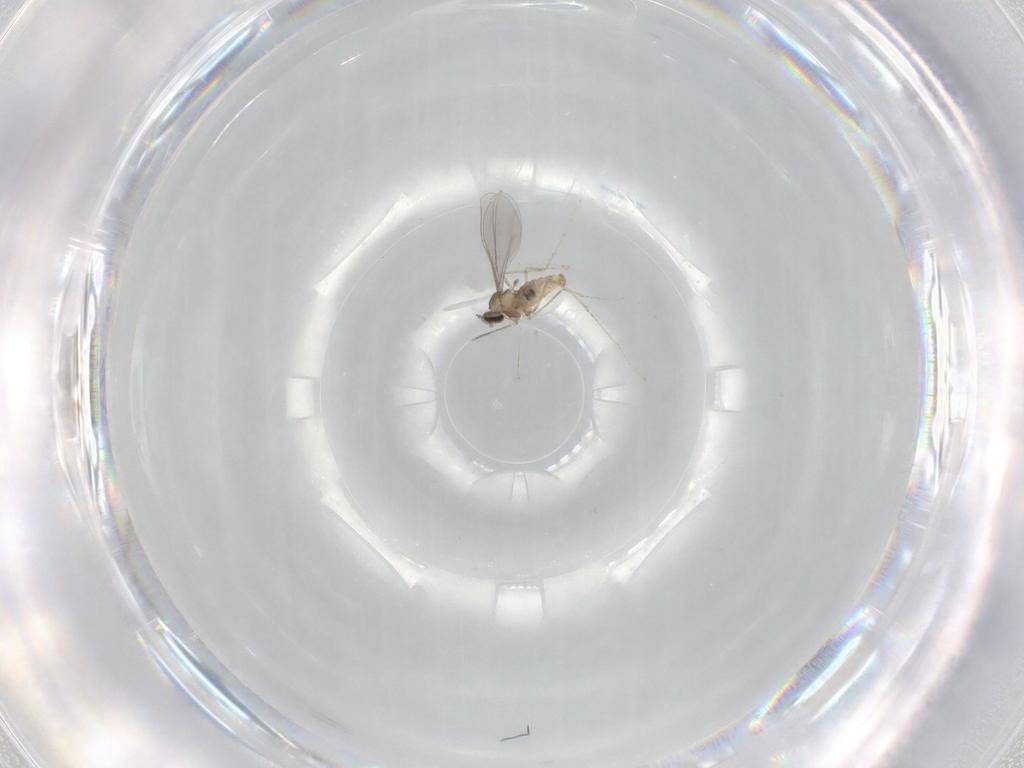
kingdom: Animalia
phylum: Arthropoda
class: Insecta
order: Diptera
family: Cecidomyiidae
